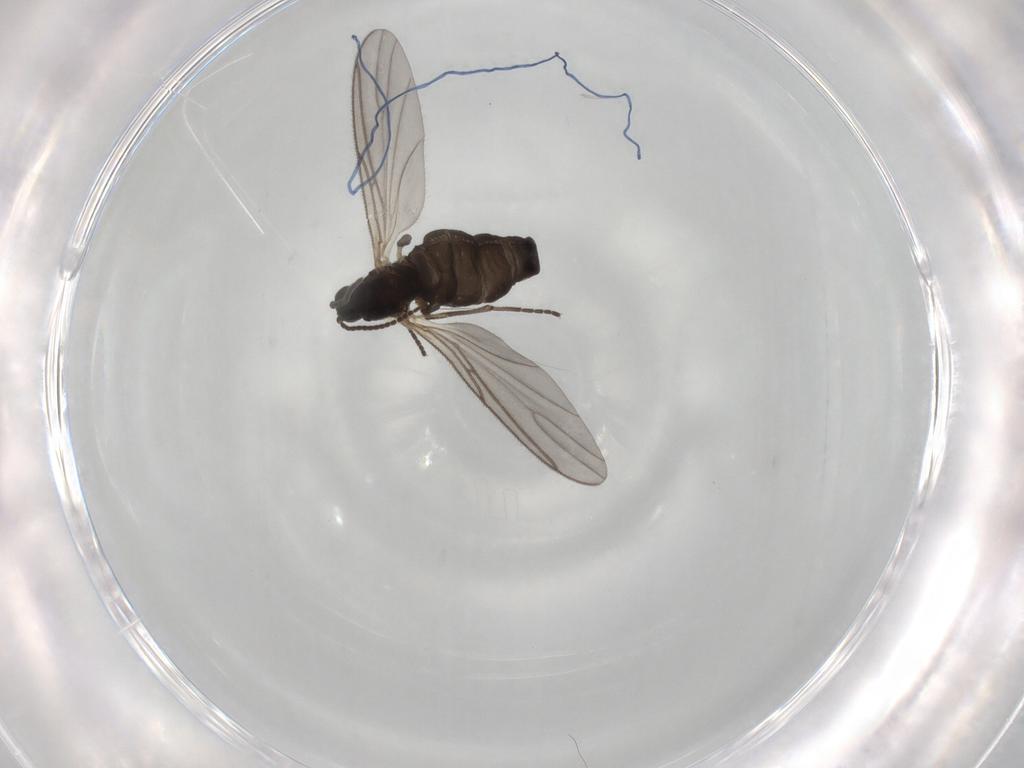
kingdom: Animalia
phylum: Arthropoda
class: Insecta
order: Diptera
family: Sciaridae
